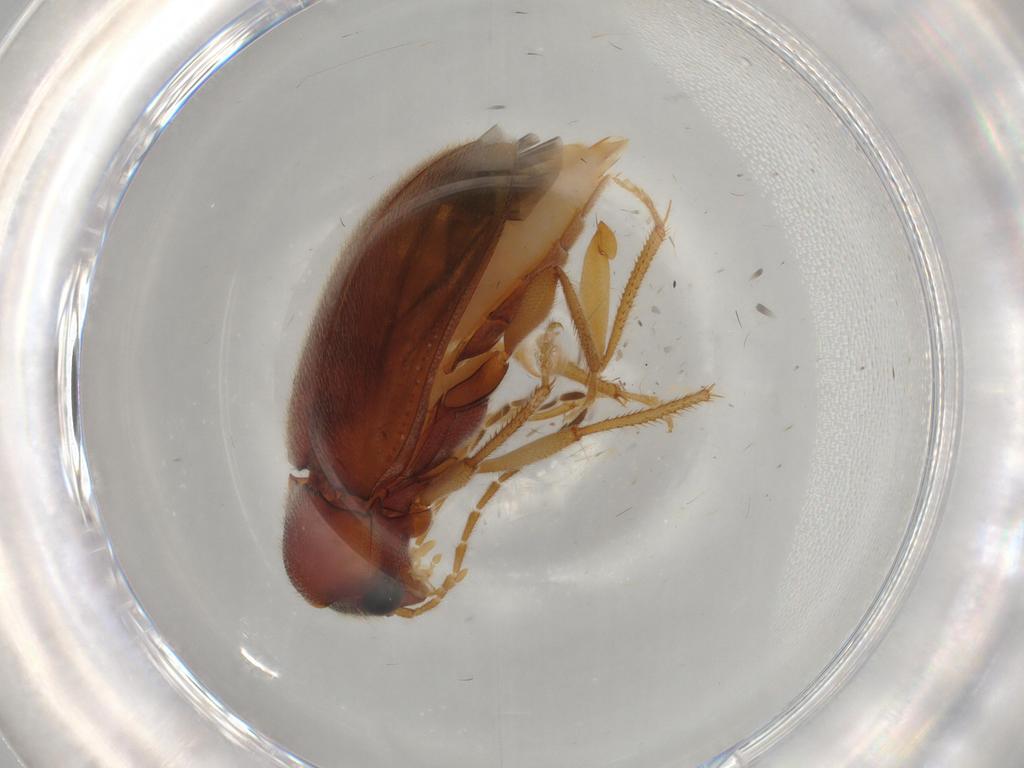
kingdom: Animalia
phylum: Arthropoda
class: Insecta
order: Coleoptera
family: Ptilodactylidae
